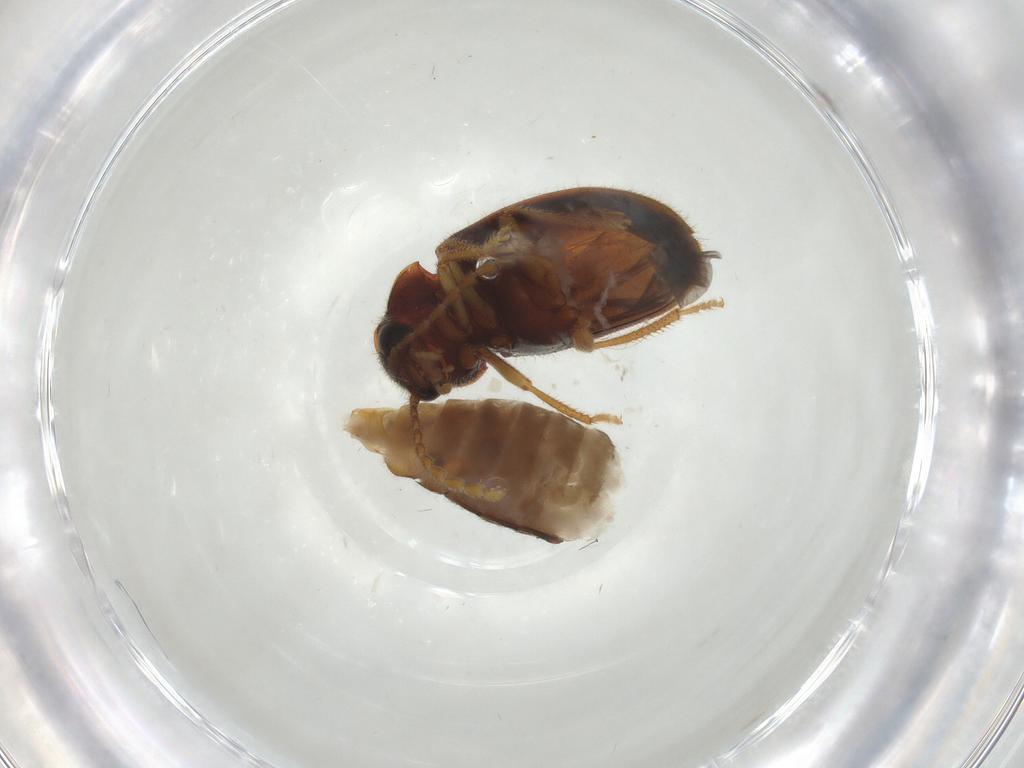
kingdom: Animalia
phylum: Arthropoda
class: Insecta
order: Coleoptera
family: Ptilodactylidae
